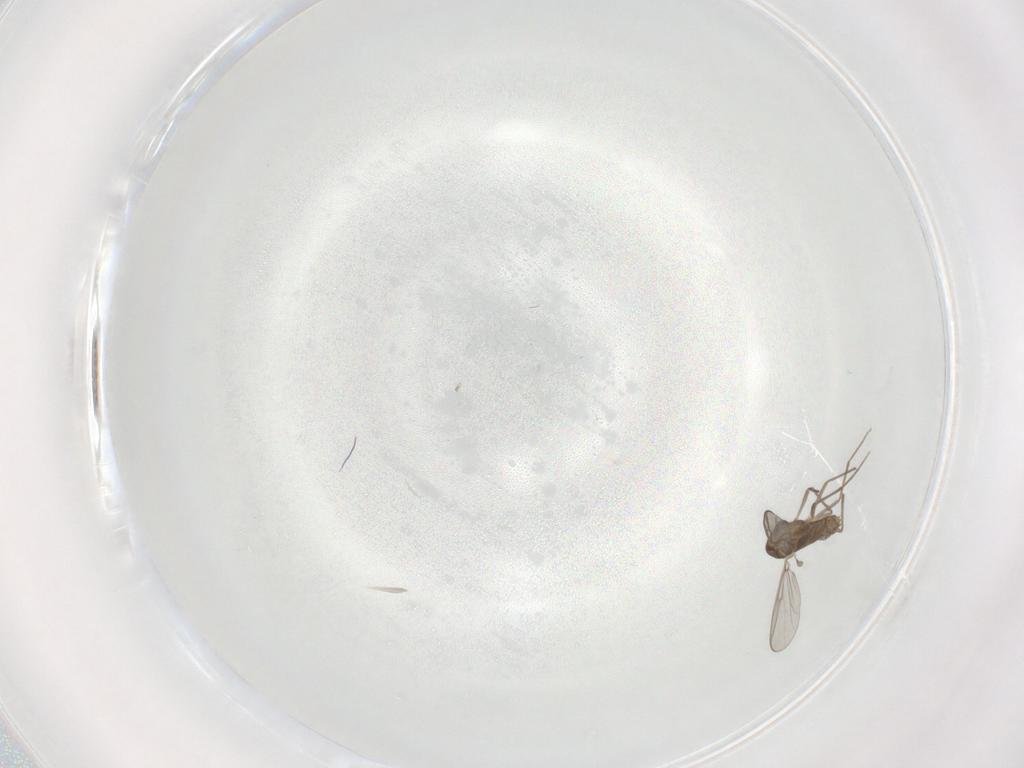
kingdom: Animalia
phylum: Arthropoda
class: Insecta
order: Diptera
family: Chironomidae
